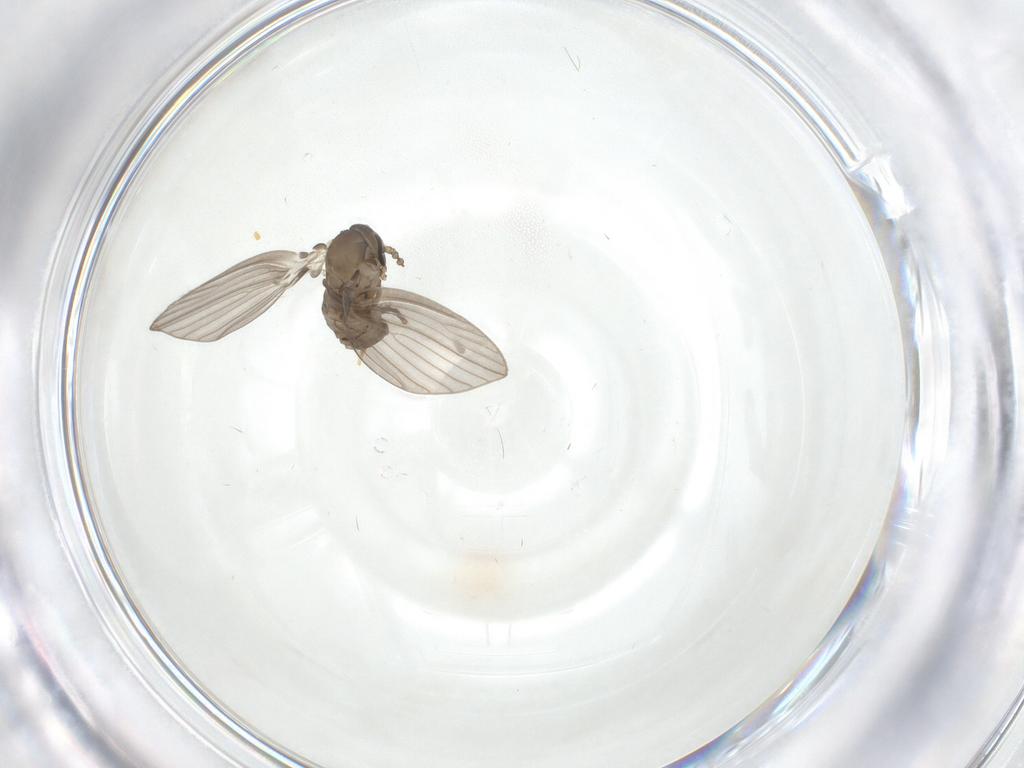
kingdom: Animalia
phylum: Arthropoda
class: Insecta
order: Diptera
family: Psychodidae
